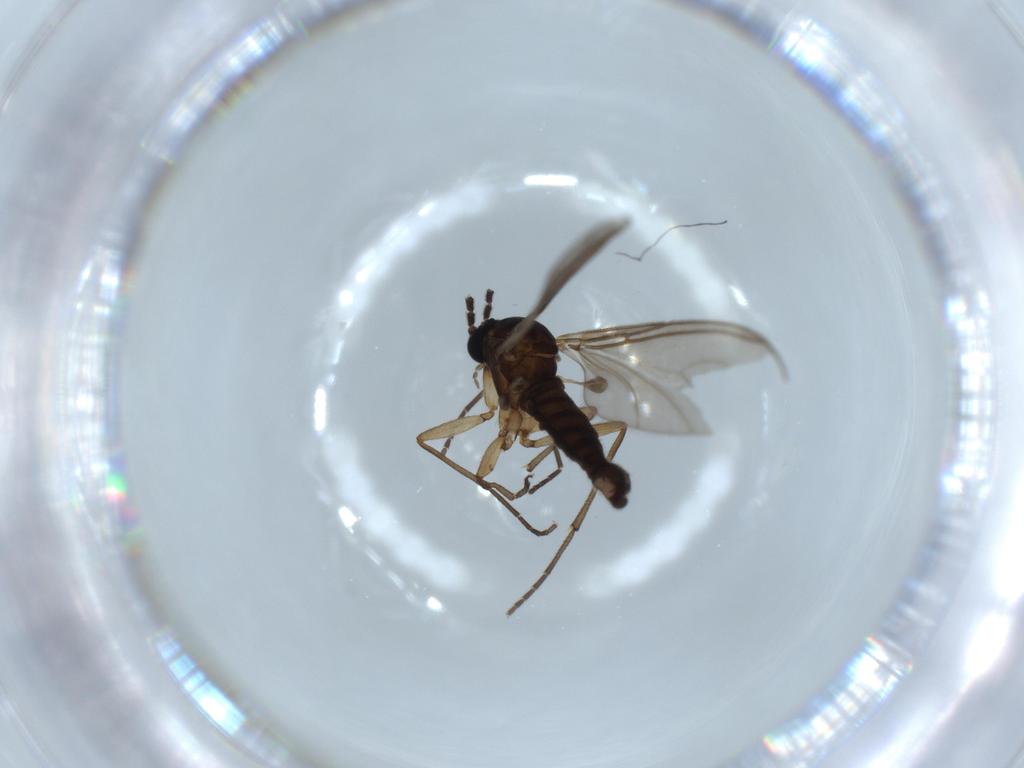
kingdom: Animalia
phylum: Arthropoda
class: Insecta
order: Diptera
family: Sciaridae
